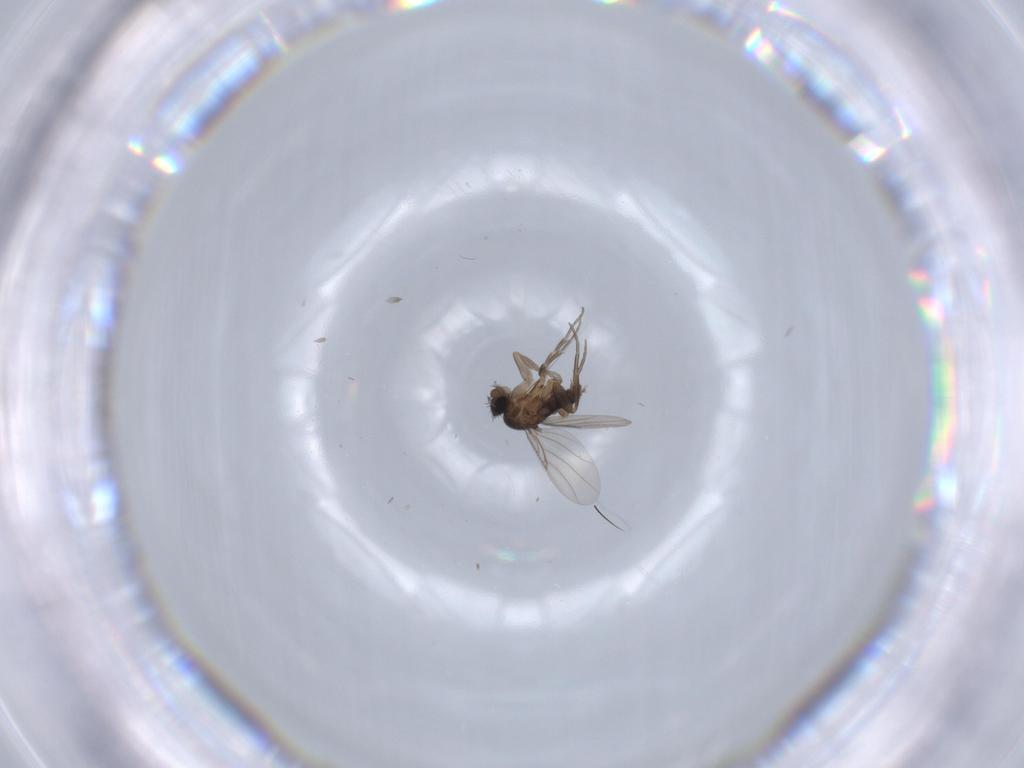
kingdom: Animalia
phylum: Arthropoda
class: Insecta
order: Diptera
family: Phoridae
